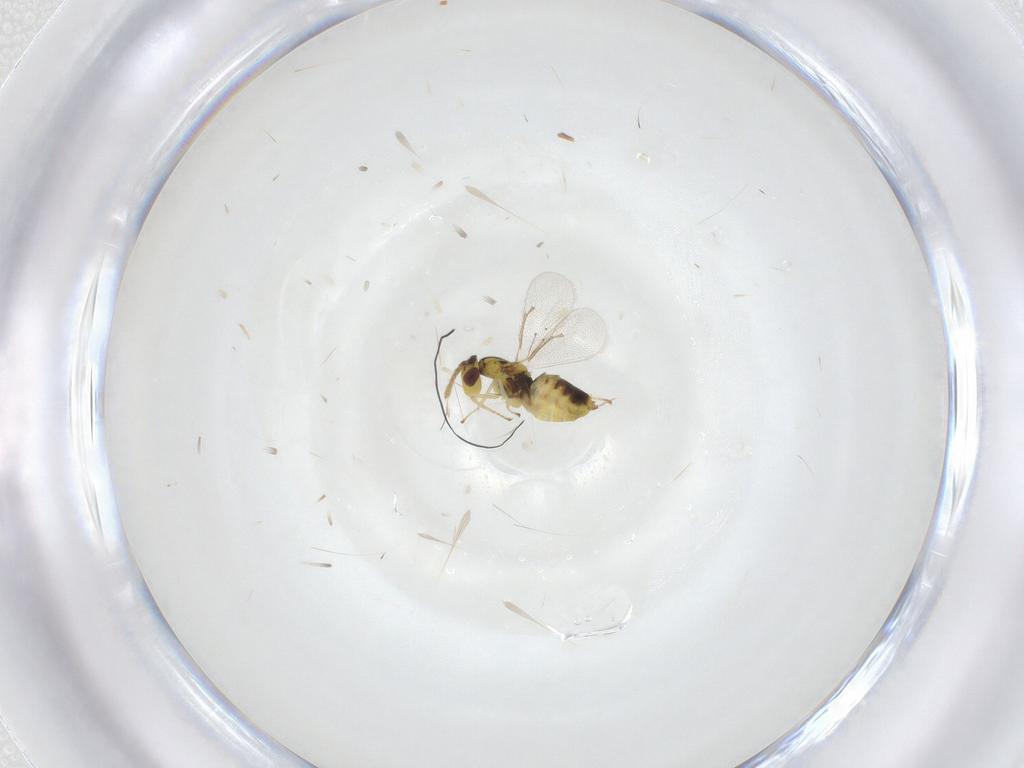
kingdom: Animalia
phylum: Arthropoda
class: Insecta
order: Hymenoptera
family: Eulophidae
